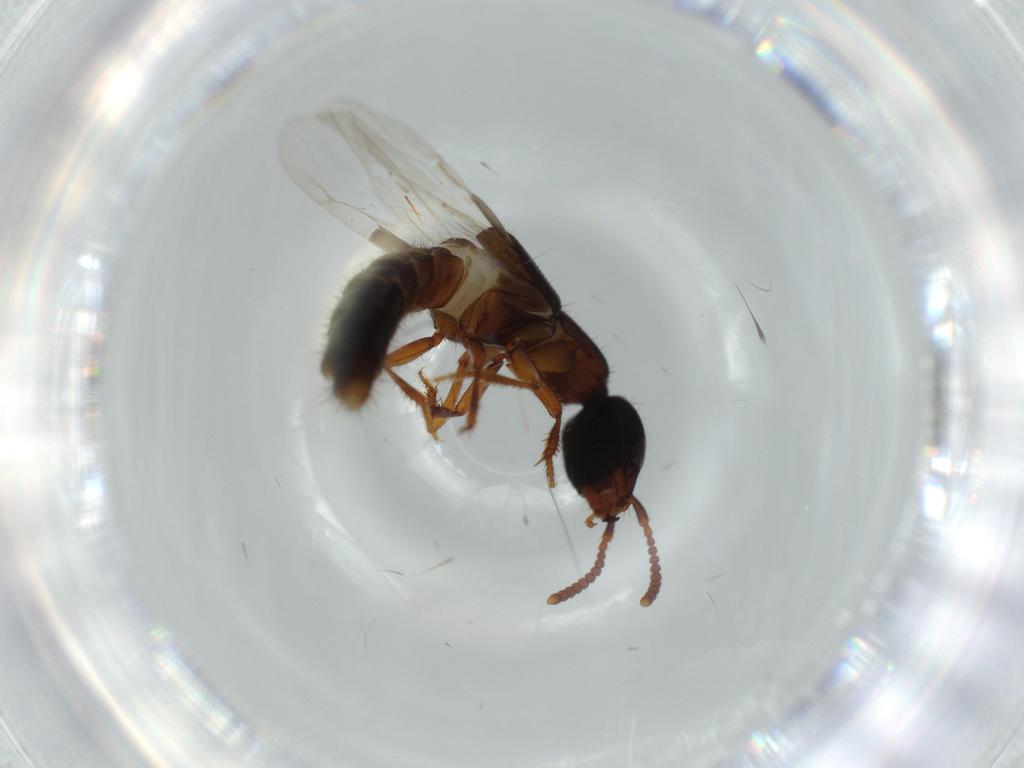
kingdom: Animalia
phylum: Arthropoda
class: Insecta
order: Coleoptera
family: Staphylinidae
